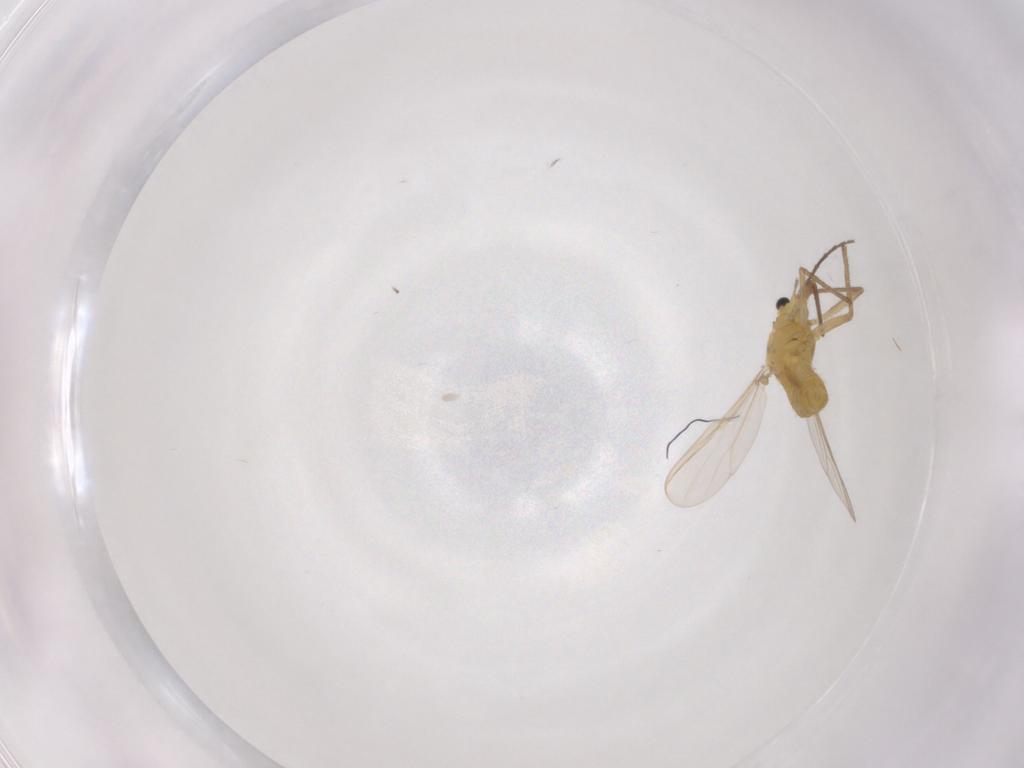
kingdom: Animalia
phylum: Arthropoda
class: Insecta
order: Diptera
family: Chironomidae
